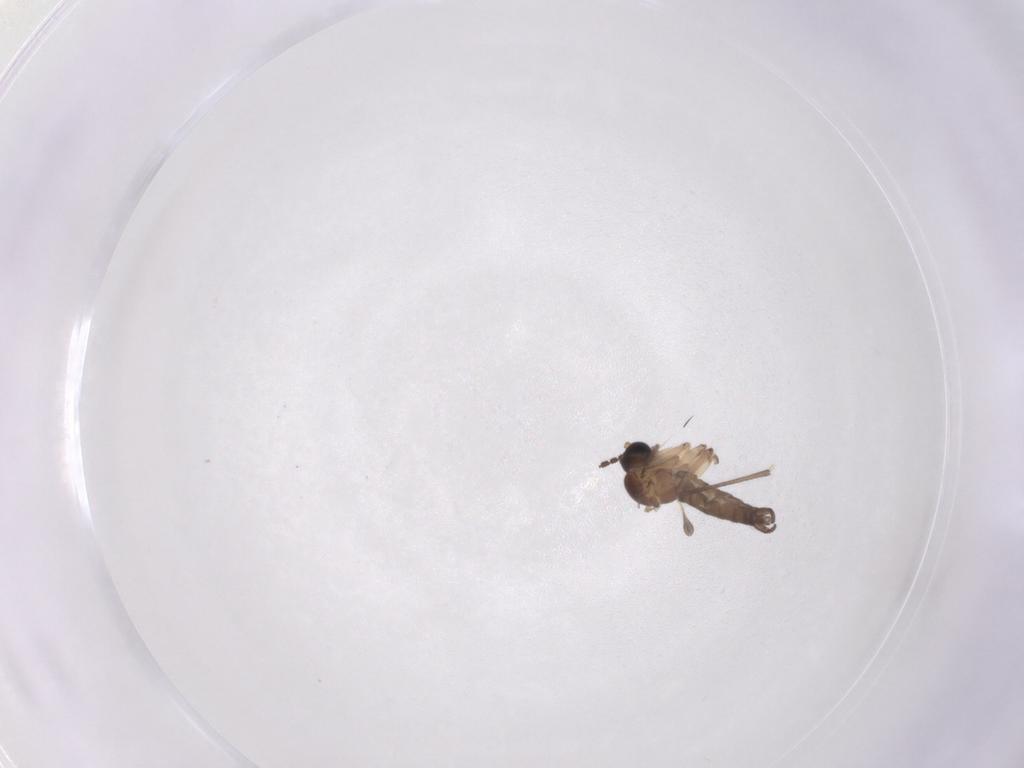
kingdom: Animalia
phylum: Arthropoda
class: Insecta
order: Diptera
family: Sciaridae
